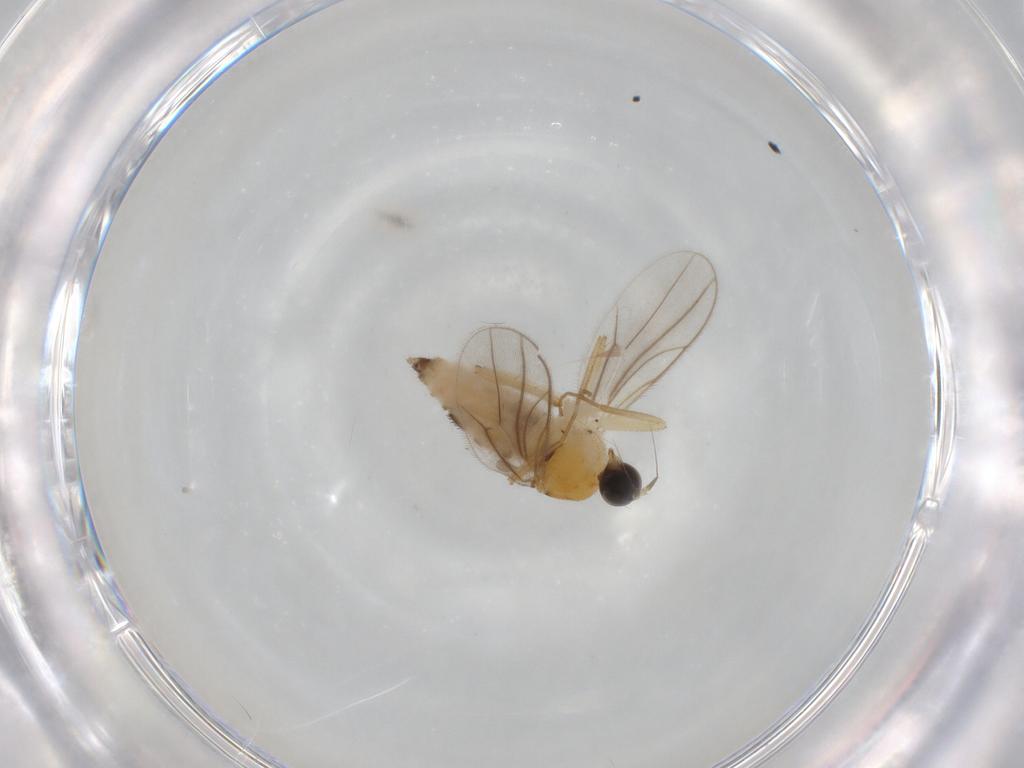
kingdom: Animalia
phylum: Arthropoda
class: Insecta
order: Diptera
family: Hybotidae
